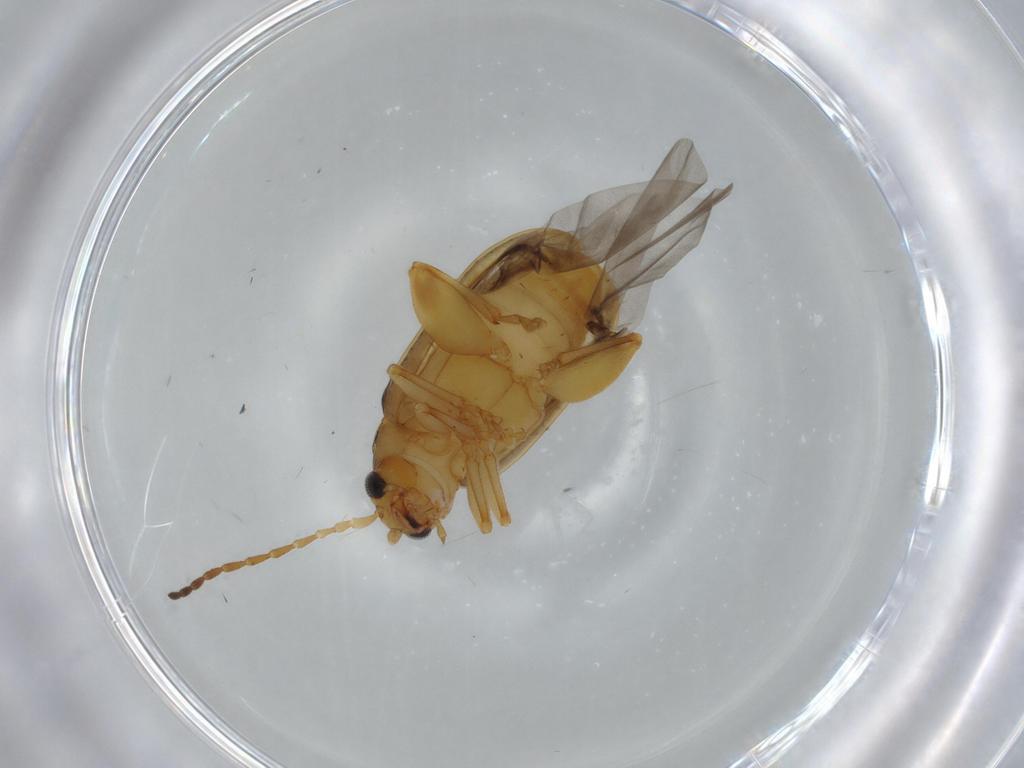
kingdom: Animalia
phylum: Arthropoda
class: Insecta
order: Coleoptera
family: Chrysomelidae
